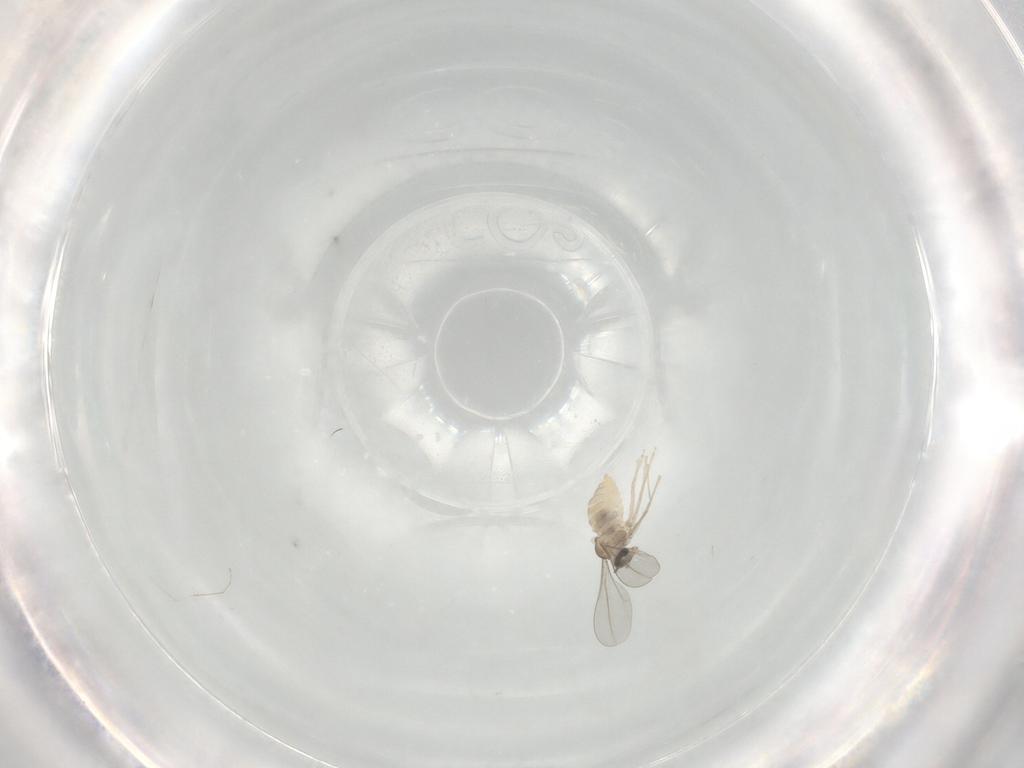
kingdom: Animalia
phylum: Arthropoda
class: Insecta
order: Diptera
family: Cecidomyiidae
